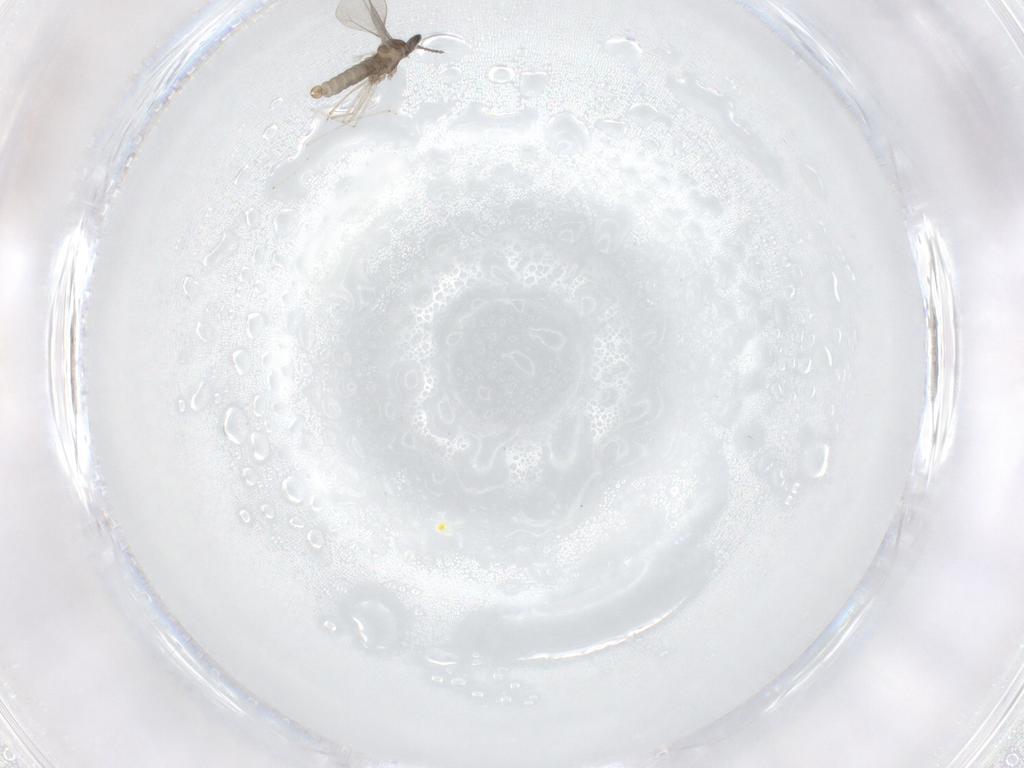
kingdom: Animalia
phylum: Arthropoda
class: Insecta
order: Diptera
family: Cecidomyiidae
